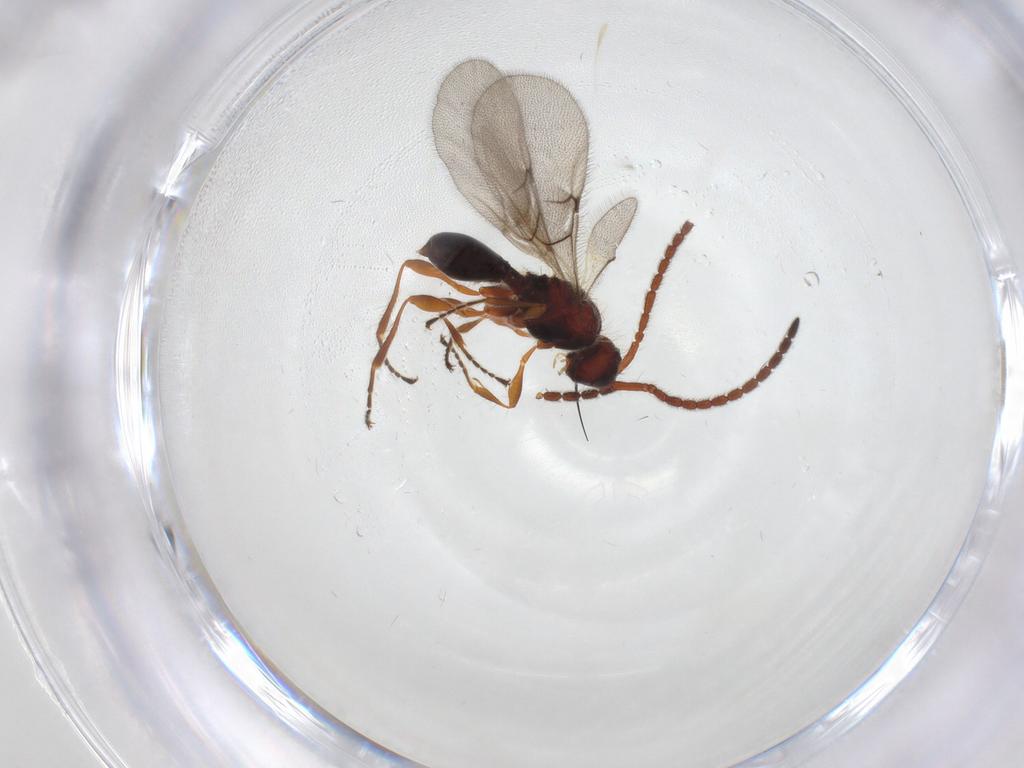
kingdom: Animalia
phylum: Arthropoda
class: Insecta
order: Hymenoptera
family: Diapriidae
